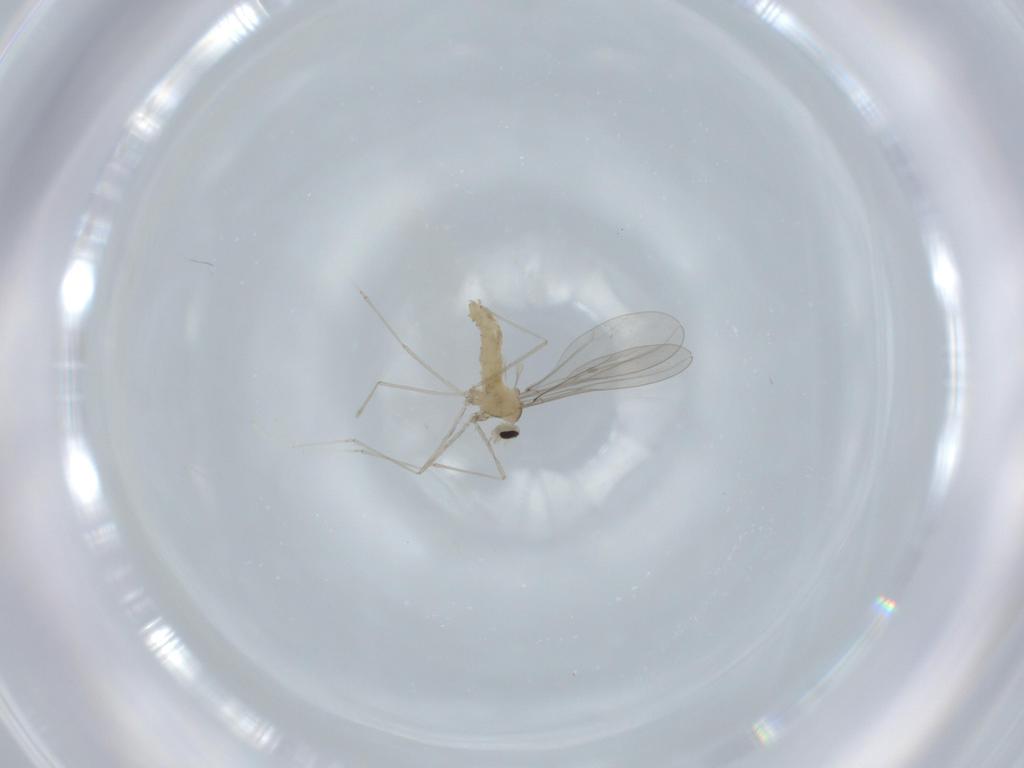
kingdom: Animalia
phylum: Arthropoda
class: Insecta
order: Diptera
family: Cecidomyiidae
